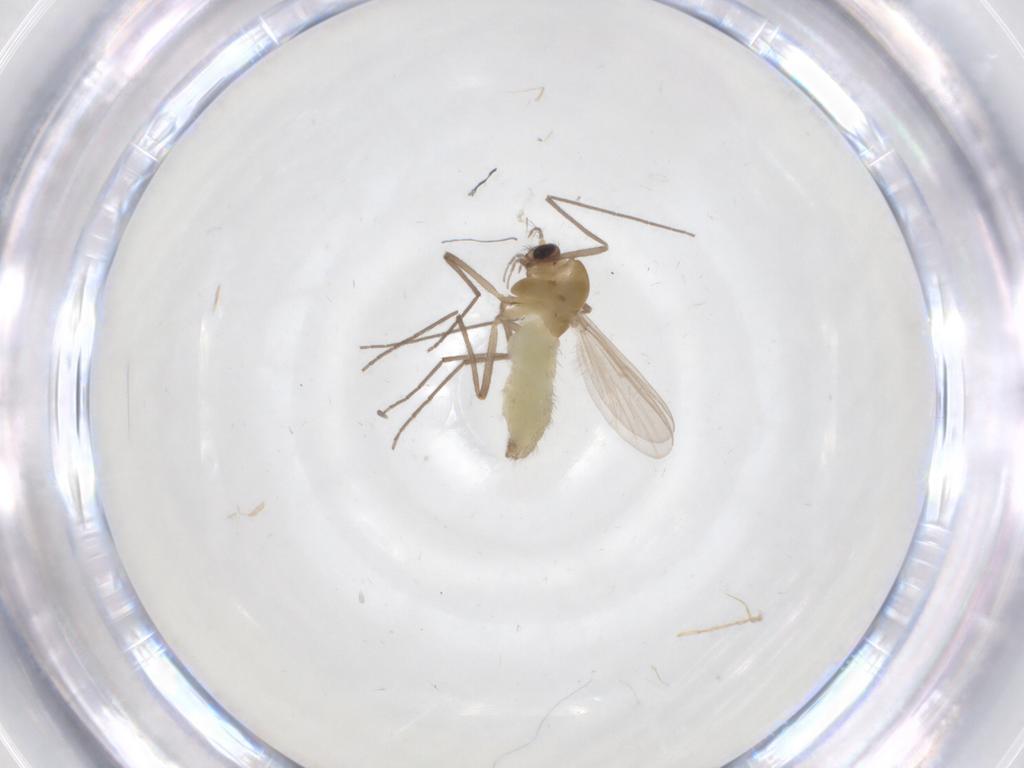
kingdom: Animalia
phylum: Arthropoda
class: Insecta
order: Diptera
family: Chironomidae
